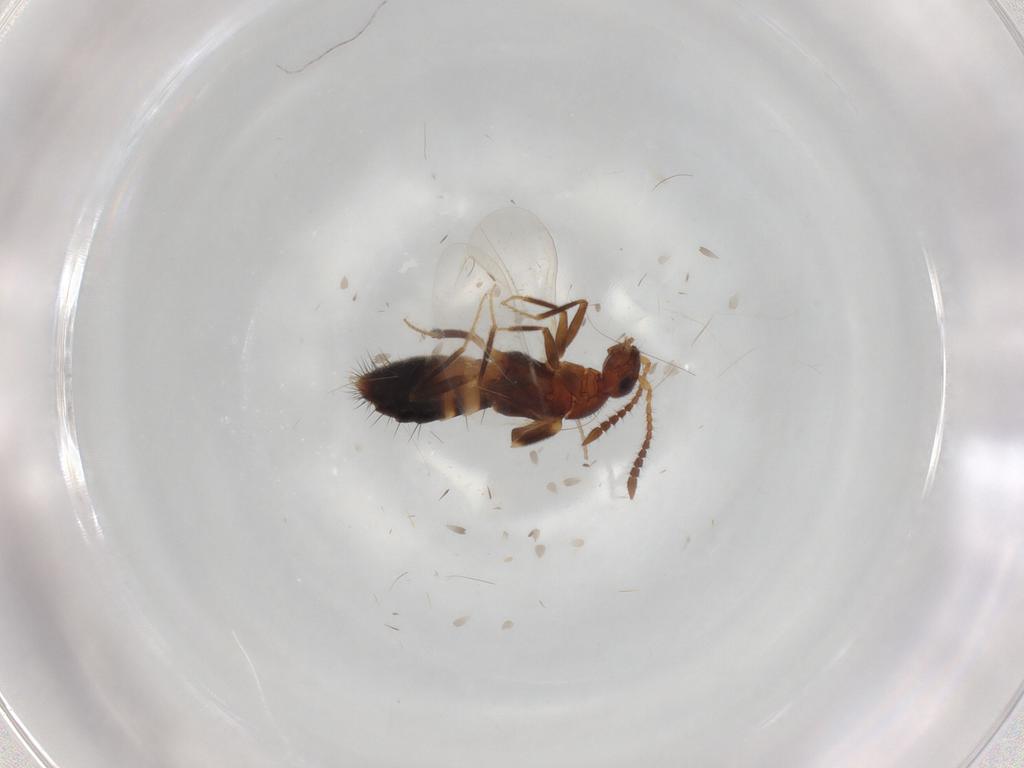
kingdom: Animalia
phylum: Arthropoda
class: Insecta
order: Coleoptera
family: Staphylinidae
